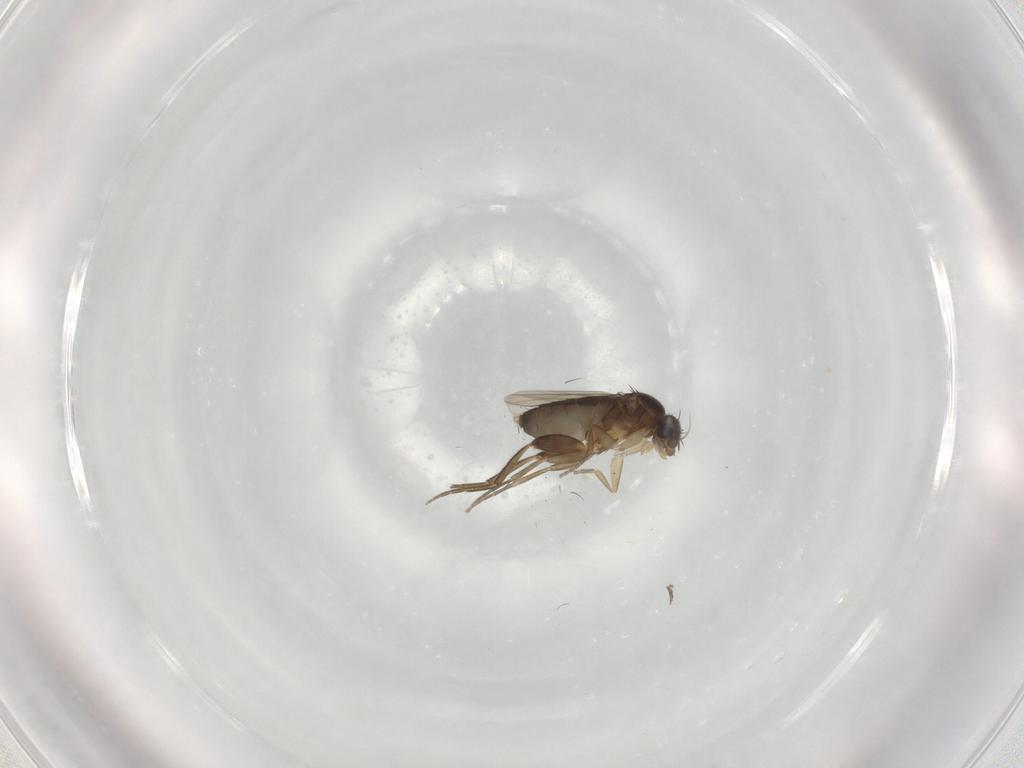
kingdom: Animalia
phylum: Arthropoda
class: Insecta
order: Diptera
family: Phoridae
